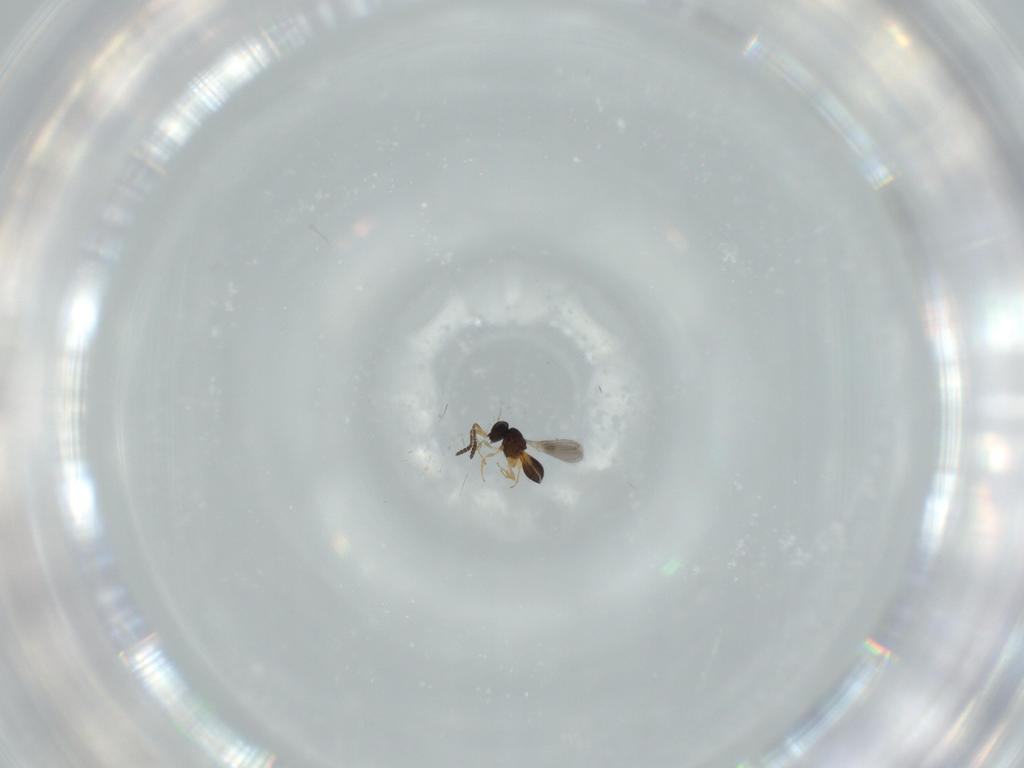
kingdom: Animalia
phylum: Arthropoda
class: Insecta
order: Hymenoptera
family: Scelionidae
